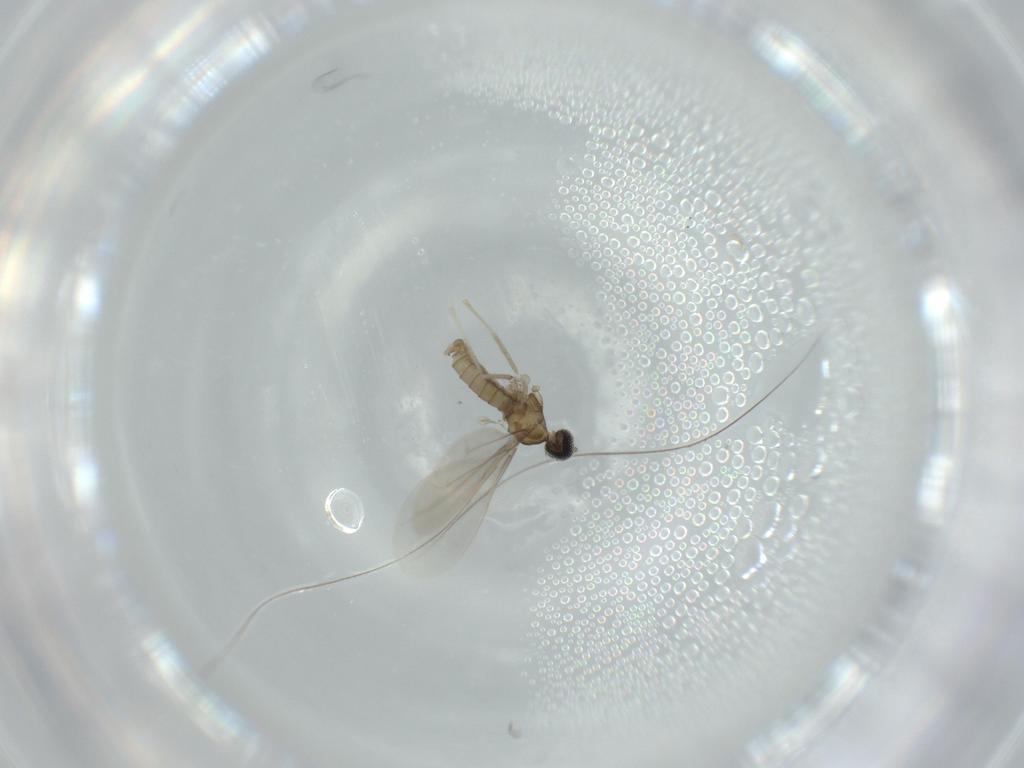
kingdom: Animalia
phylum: Arthropoda
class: Insecta
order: Diptera
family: Cecidomyiidae
